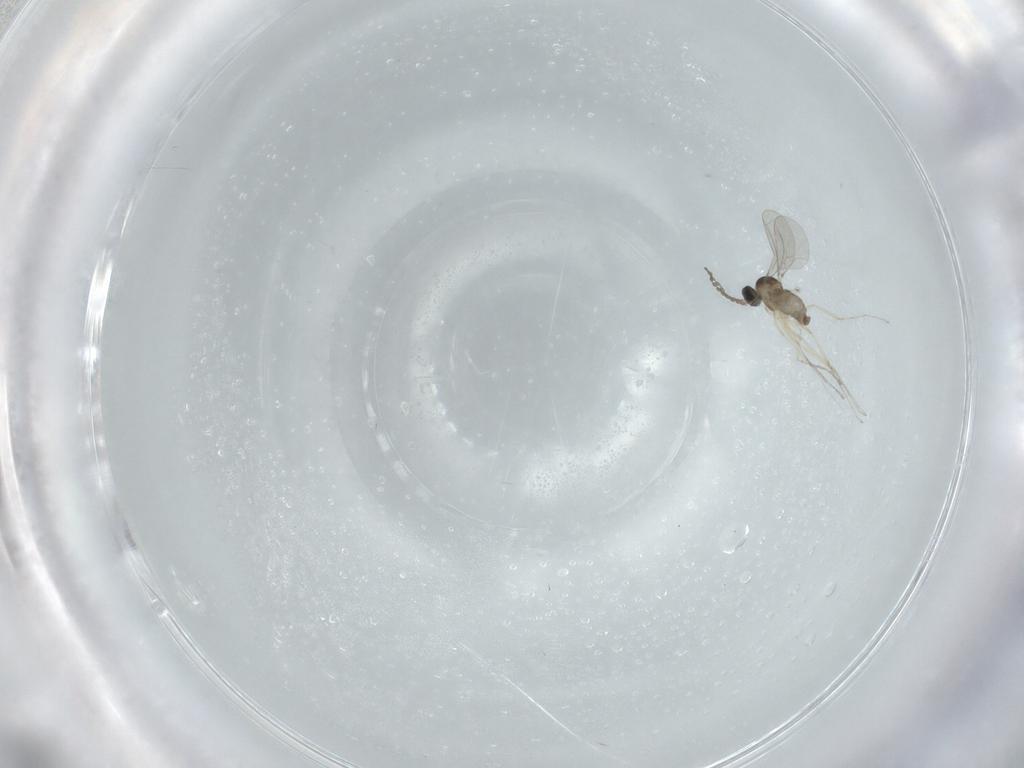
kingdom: Animalia
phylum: Arthropoda
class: Insecta
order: Diptera
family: Cecidomyiidae
